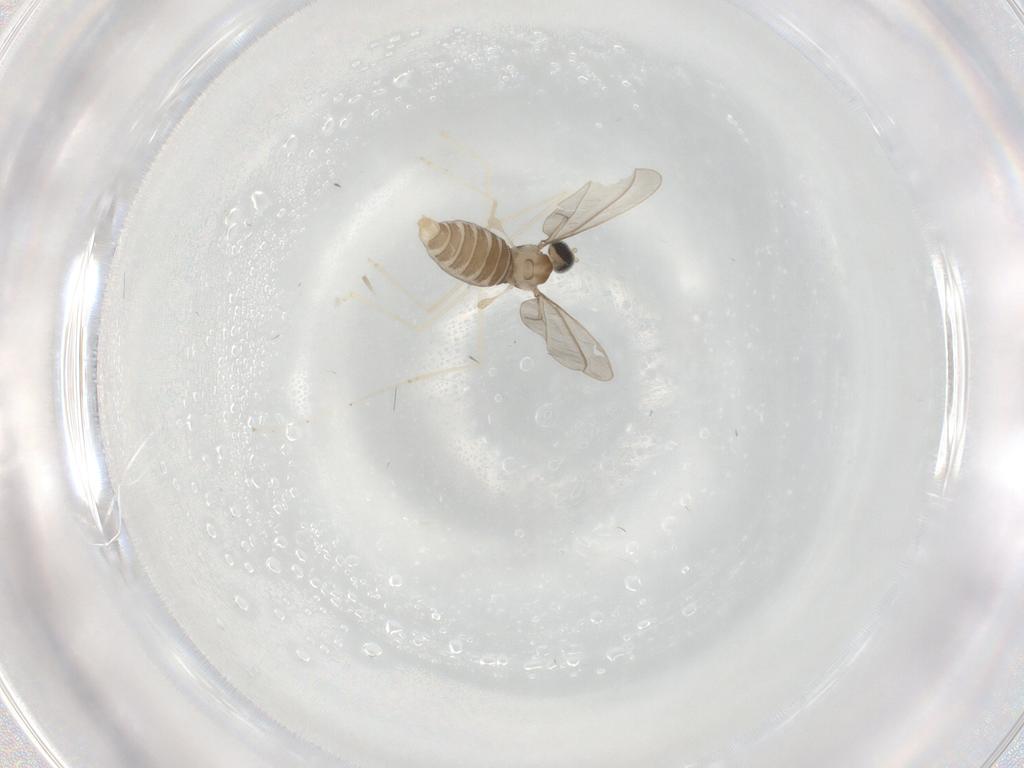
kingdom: Animalia
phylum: Arthropoda
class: Insecta
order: Diptera
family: Cecidomyiidae
